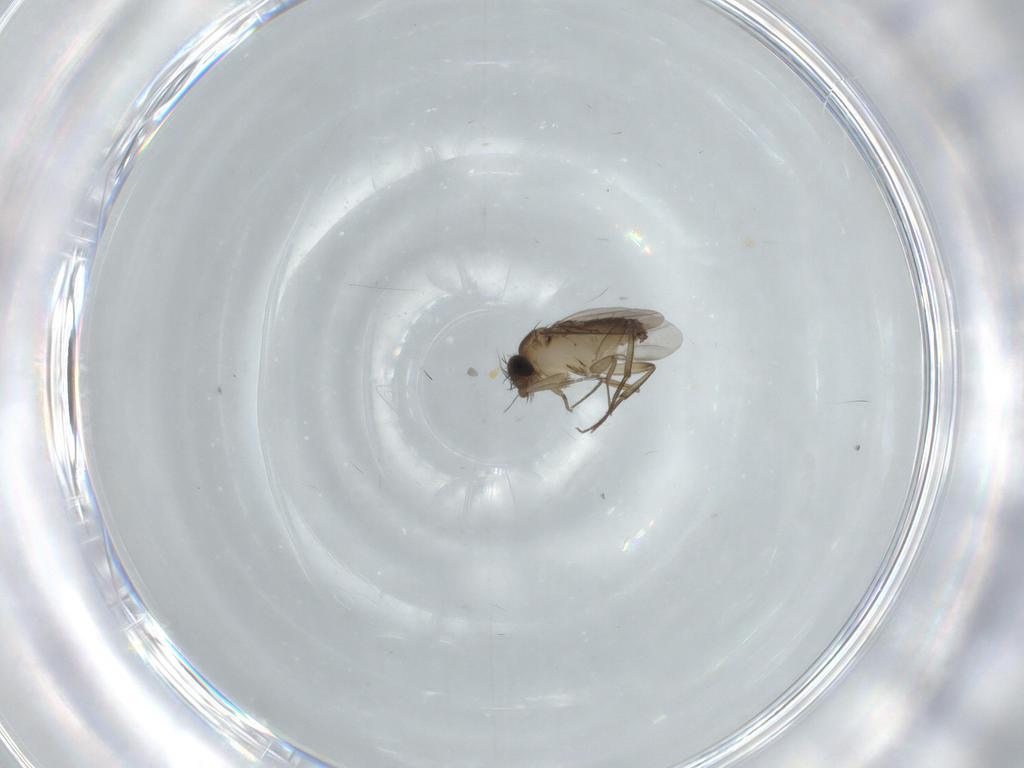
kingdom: Animalia
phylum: Arthropoda
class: Insecta
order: Diptera
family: Phoridae
